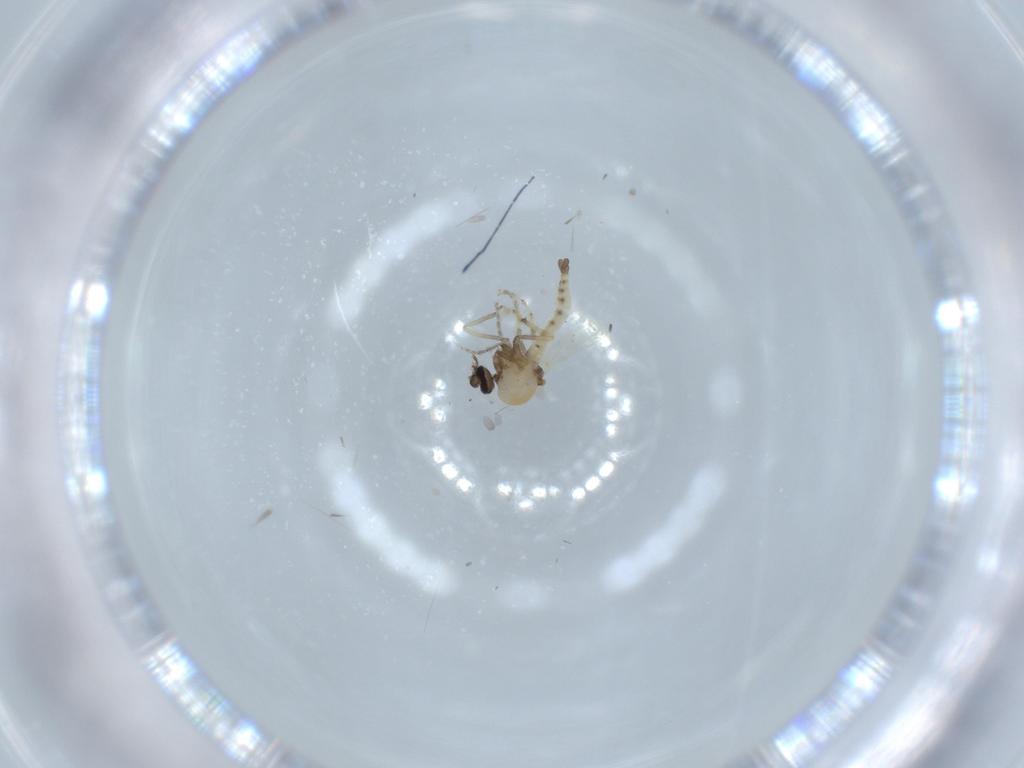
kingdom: Animalia
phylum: Arthropoda
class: Insecta
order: Diptera
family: Ceratopogonidae
